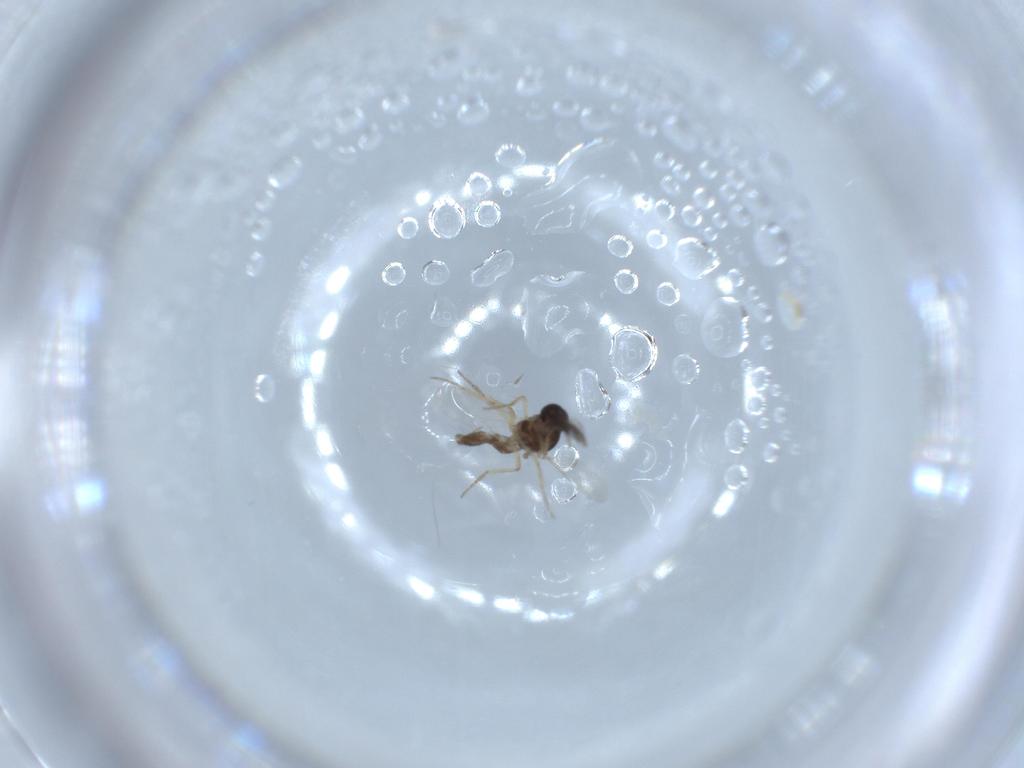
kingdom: Animalia
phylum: Arthropoda
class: Insecta
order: Diptera
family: Ceratopogonidae
